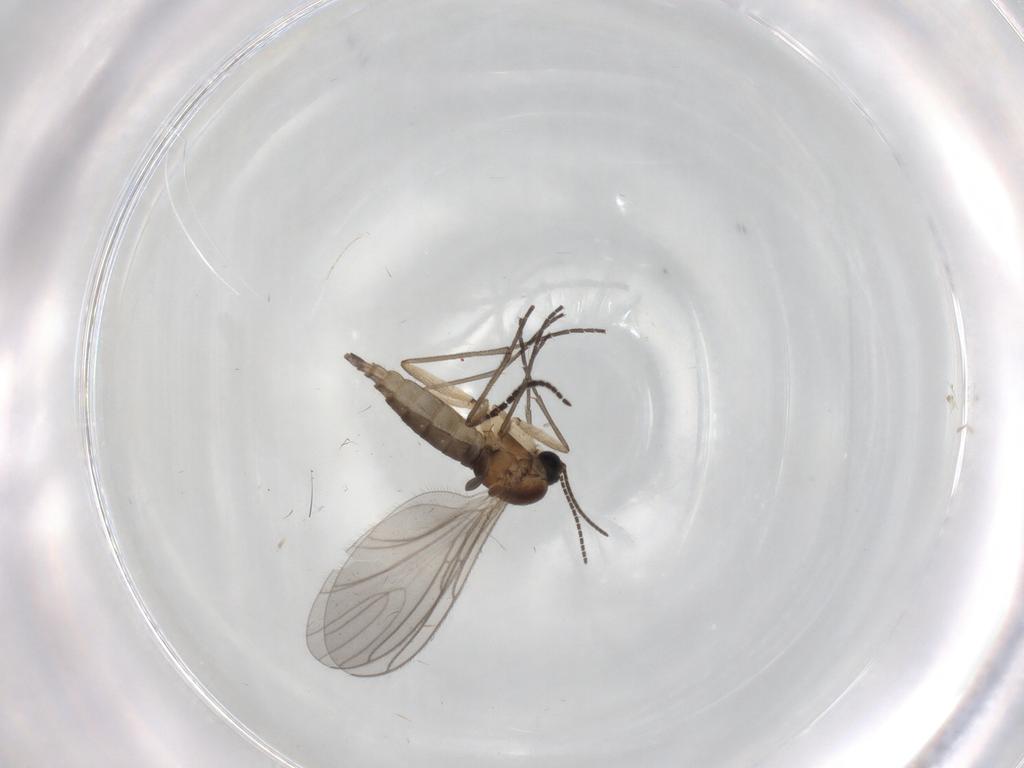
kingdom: Animalia
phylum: Arthropoda
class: Insecta
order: Diptera
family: Sciaridae
